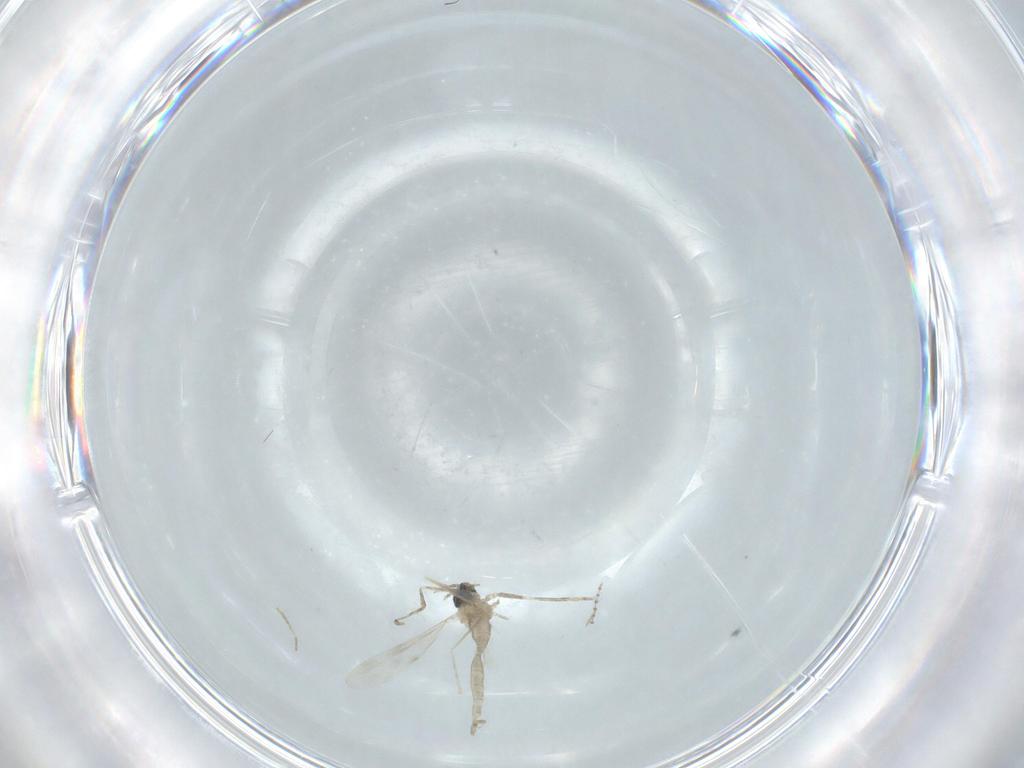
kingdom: Animalia
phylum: Arthropoda
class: Insecta
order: Diptera
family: Cecidomyiidae
